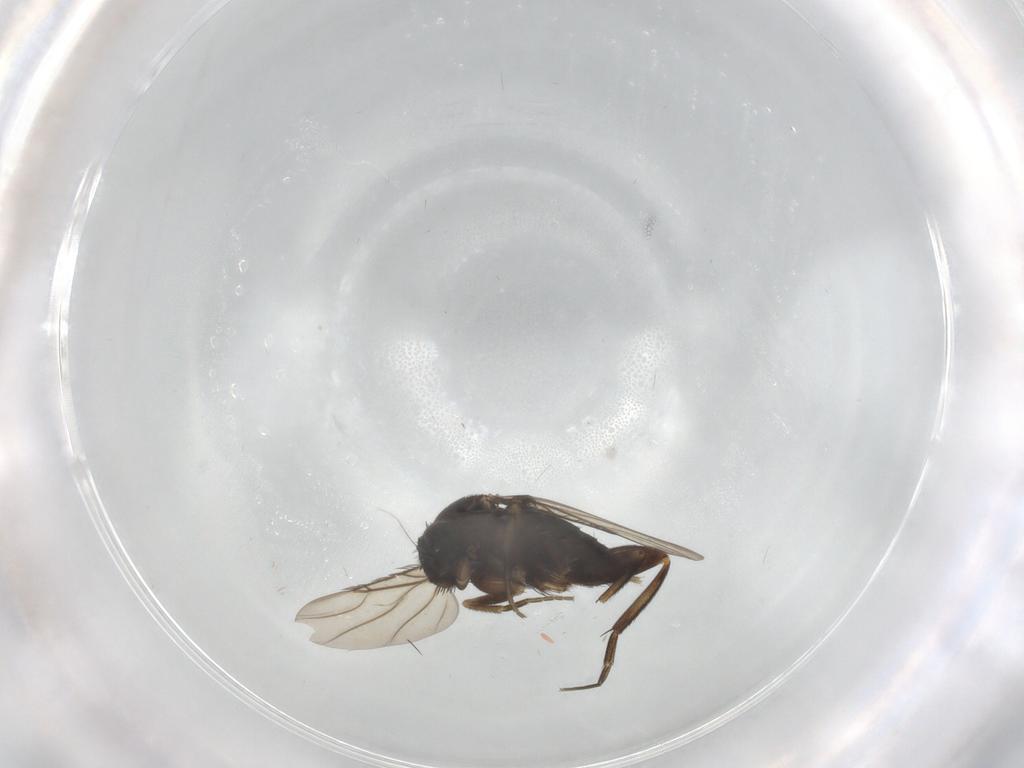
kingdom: Animalia
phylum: Arthropoda
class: Insecta
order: Diptera
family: Phoridae
